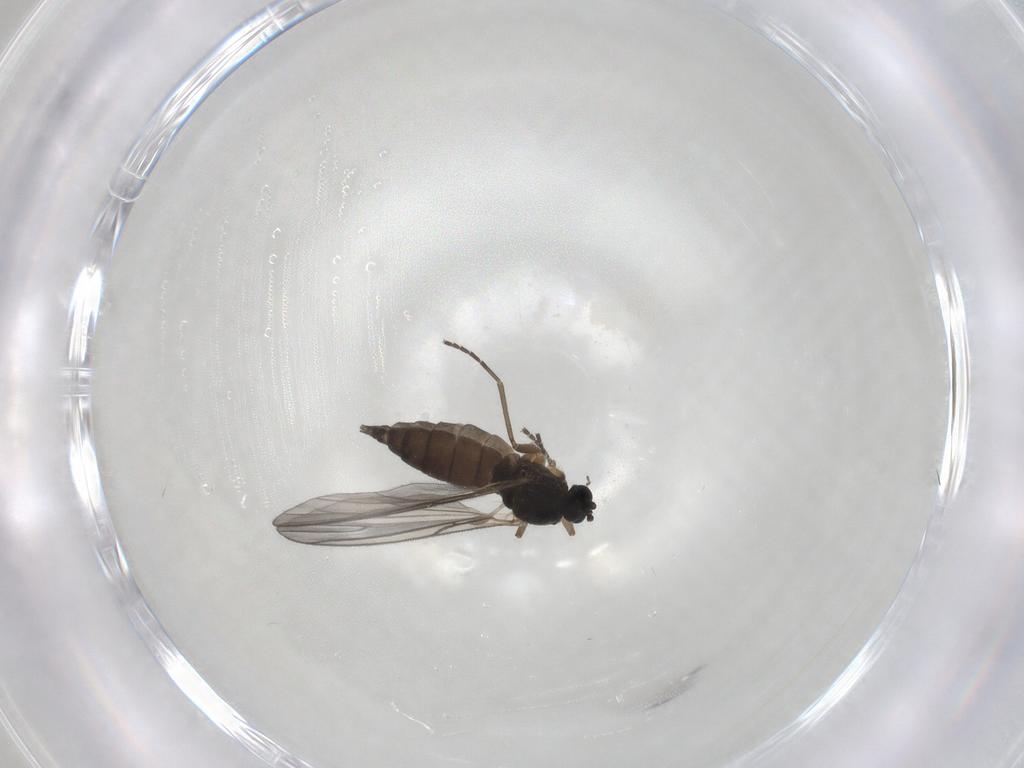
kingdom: Animalia
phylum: Arthropoda
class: Insecta
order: Diptera
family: Sciaridae
